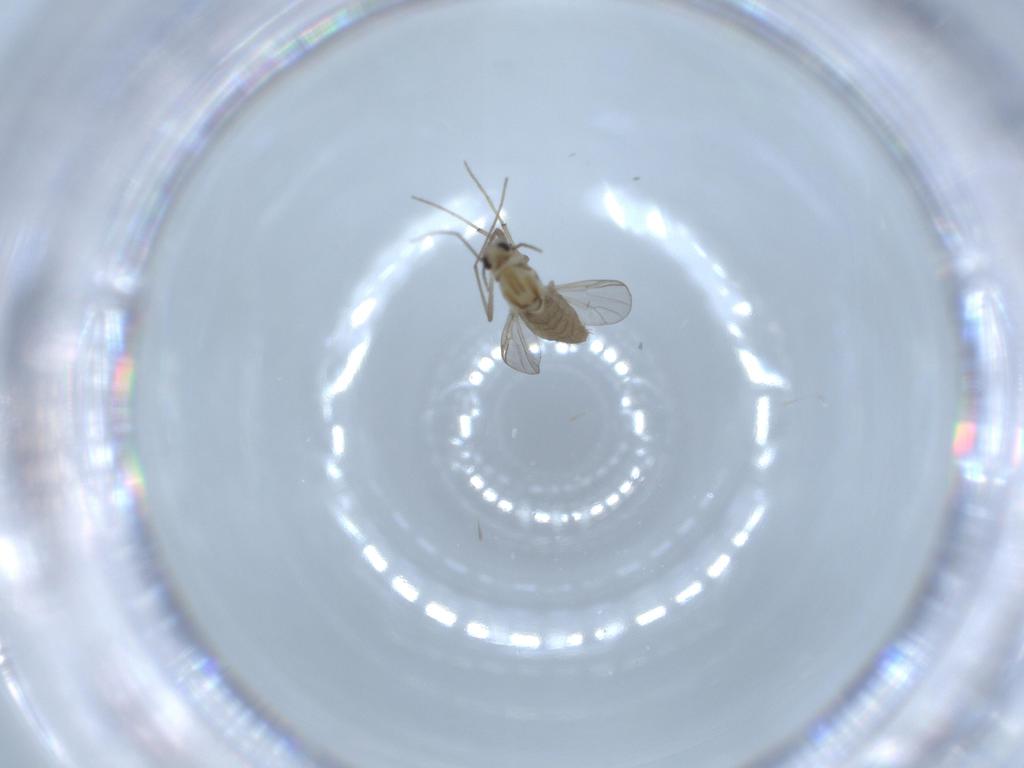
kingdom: Animalia
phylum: Arthropoda
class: Insecta
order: Diptera
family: Chironomidae
